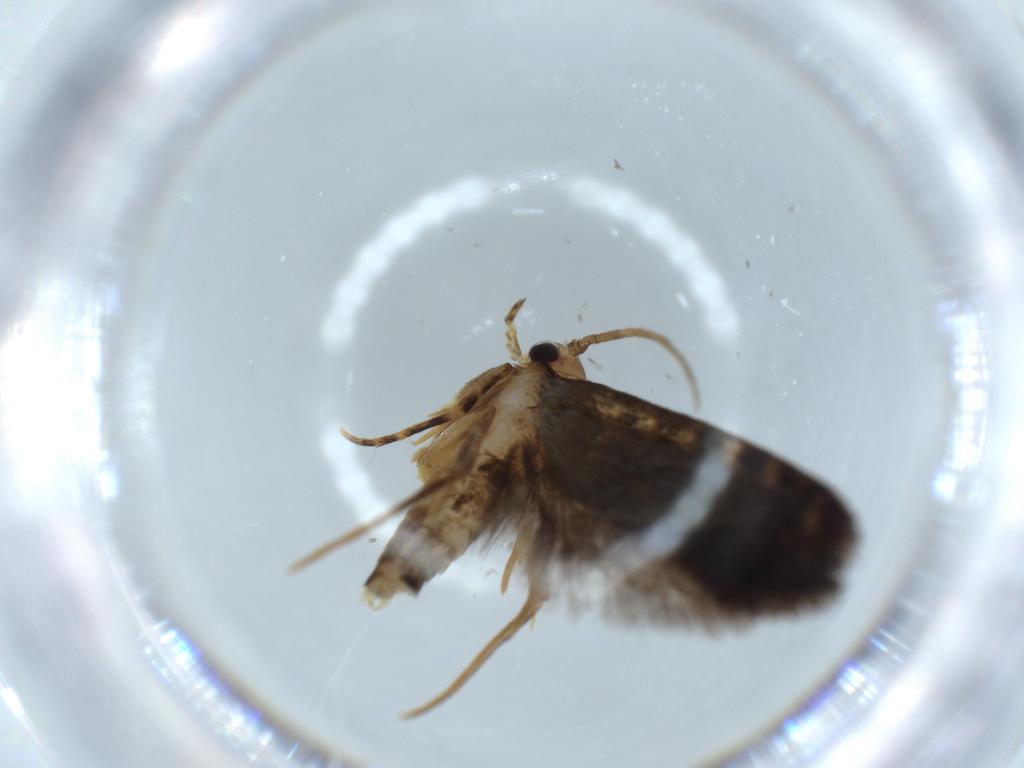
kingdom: Animalia
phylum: Arthropoda
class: Insecta
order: Lepidoptera
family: Tineidae
